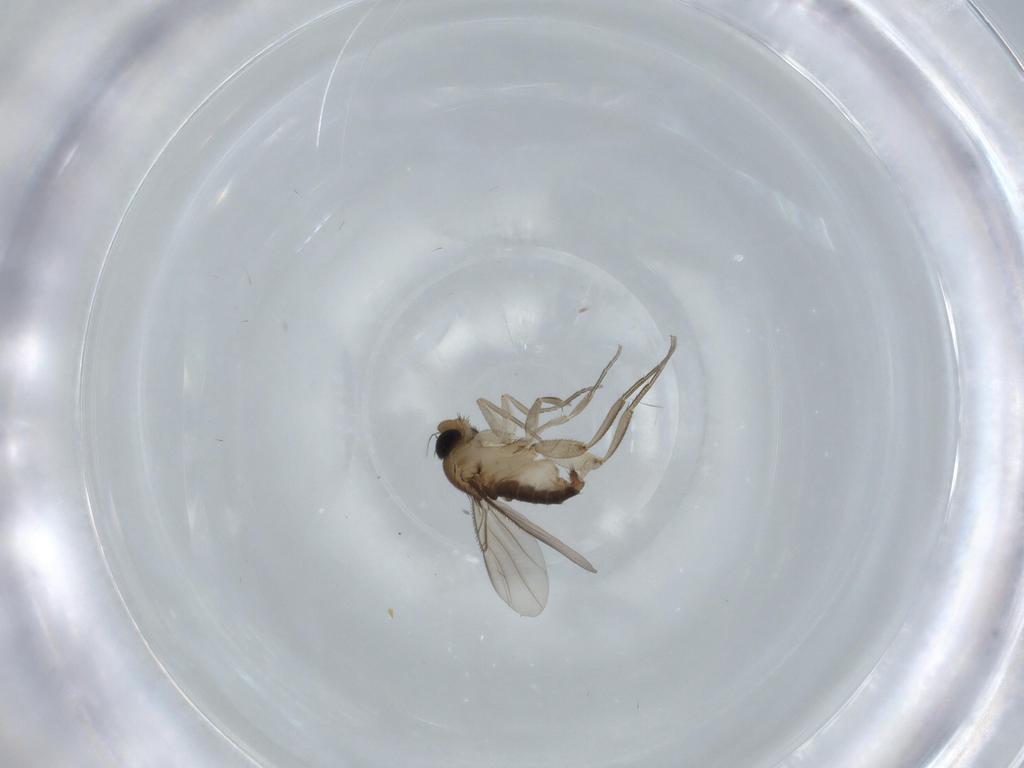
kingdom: Animalia
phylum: Arthropoda
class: Insecta
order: Diptera
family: Phoridae
